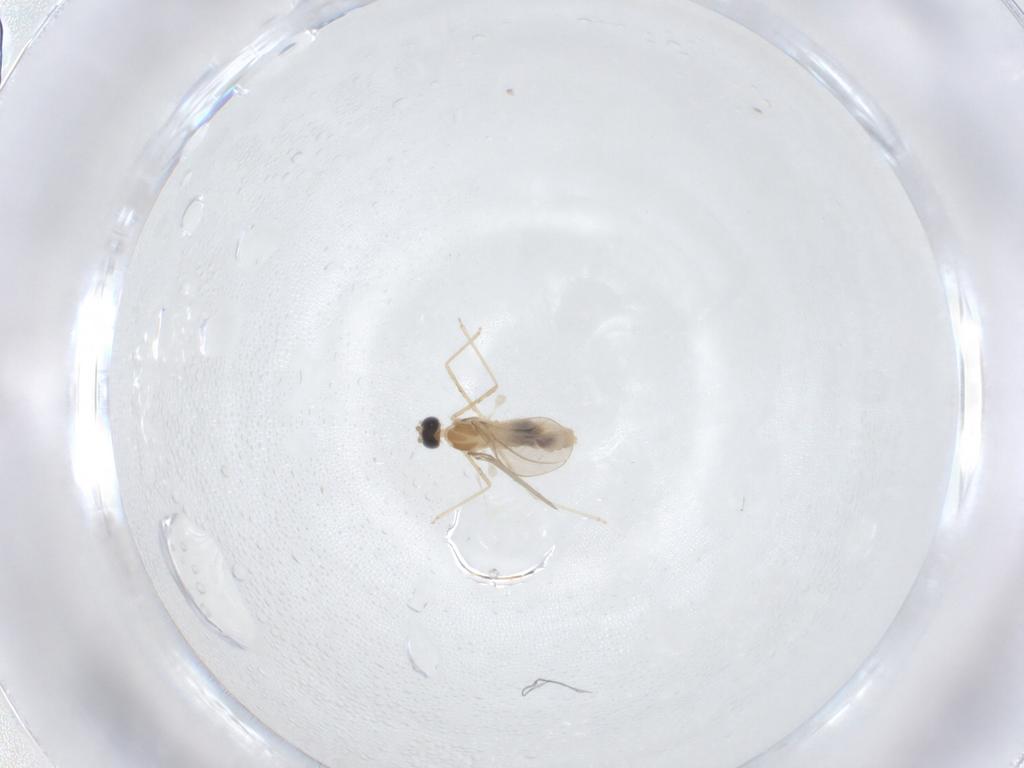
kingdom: Animalia
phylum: Arthropoda
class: Insecta
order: Diptera
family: Cecidomyiidae
